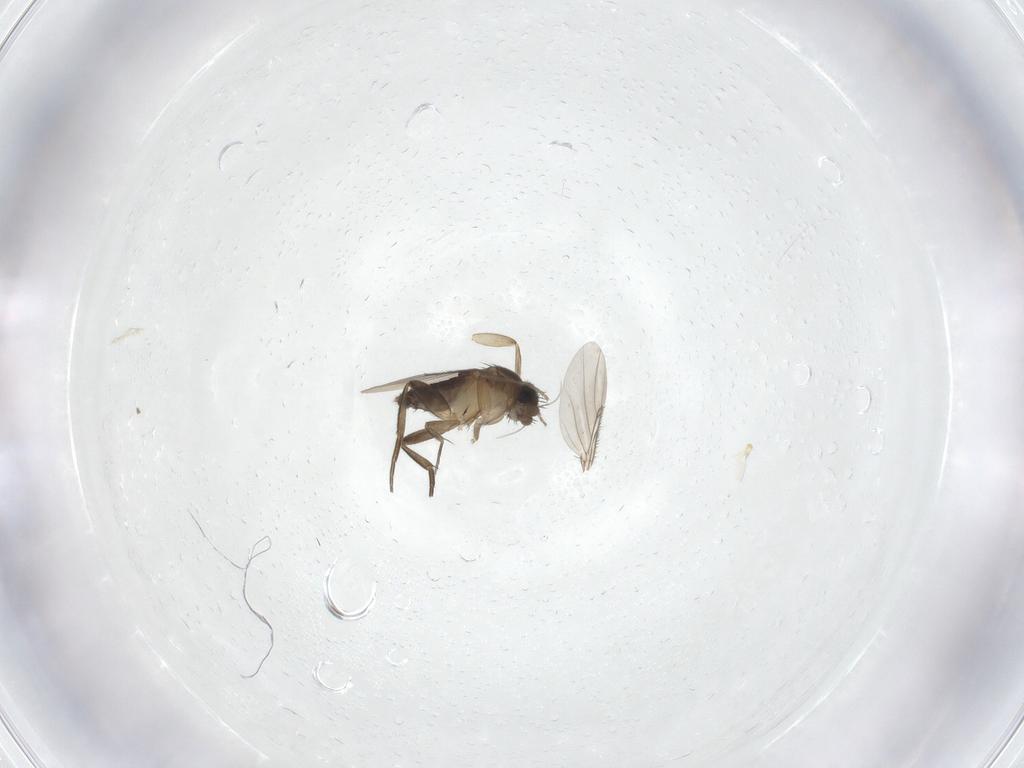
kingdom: Animalia
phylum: Arthropoda
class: Insecta
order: Diptera
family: Phoridae
